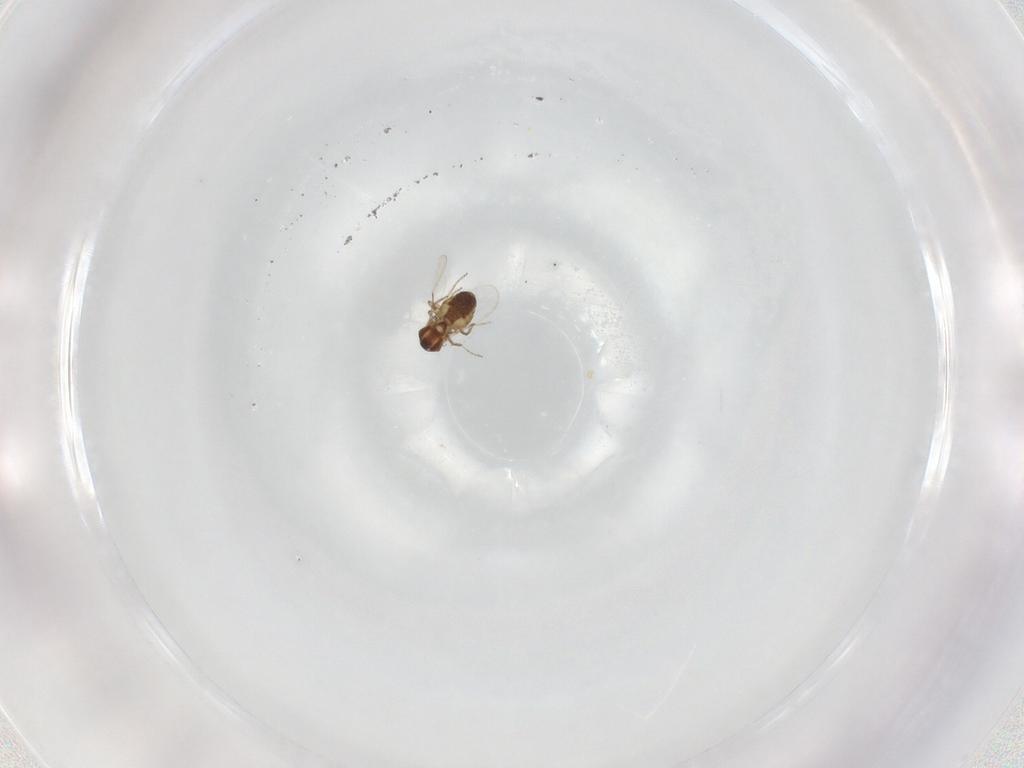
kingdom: Animalia
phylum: Arthropoda
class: Insecta
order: Diptera
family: Ceratopogonidae
